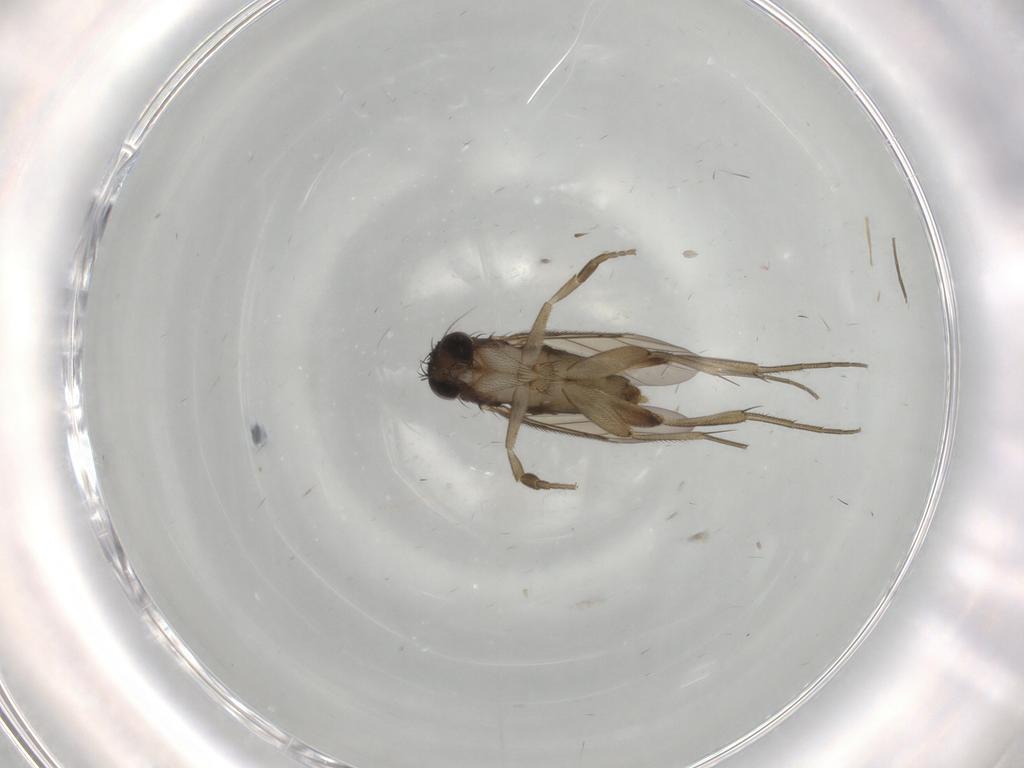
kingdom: Animalia
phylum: Arthropoda
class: Insecta
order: Diptera
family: Phoridae
